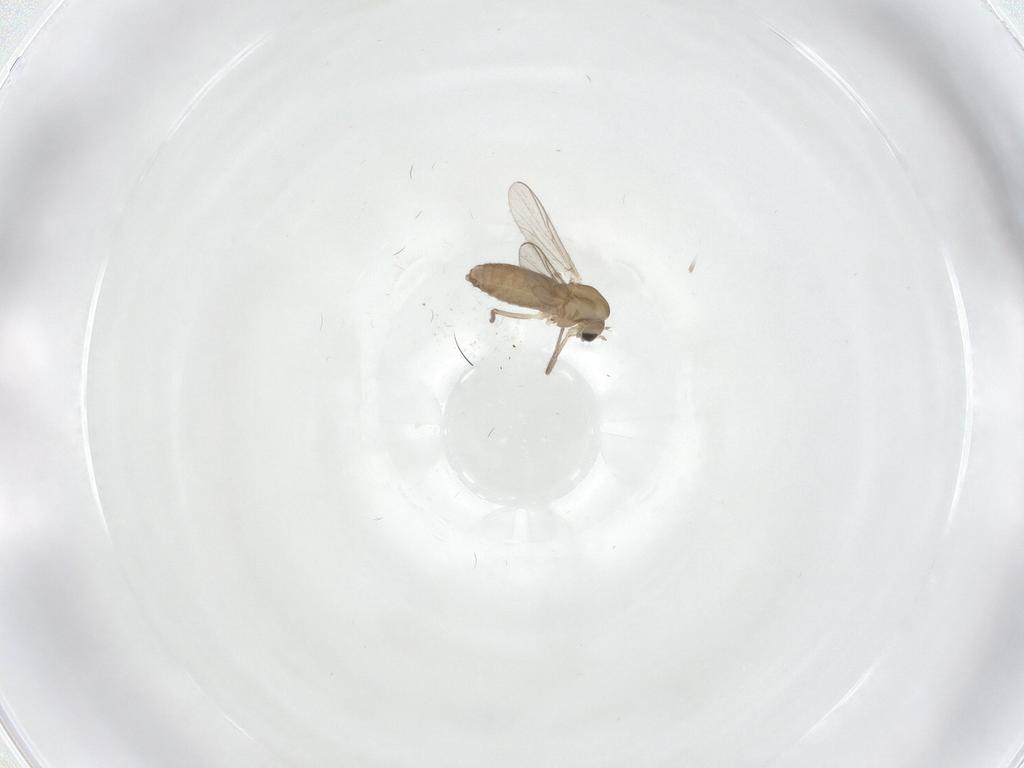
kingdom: Animalia
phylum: Arthropoda
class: Insecta
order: Diptera
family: Chironomidae
